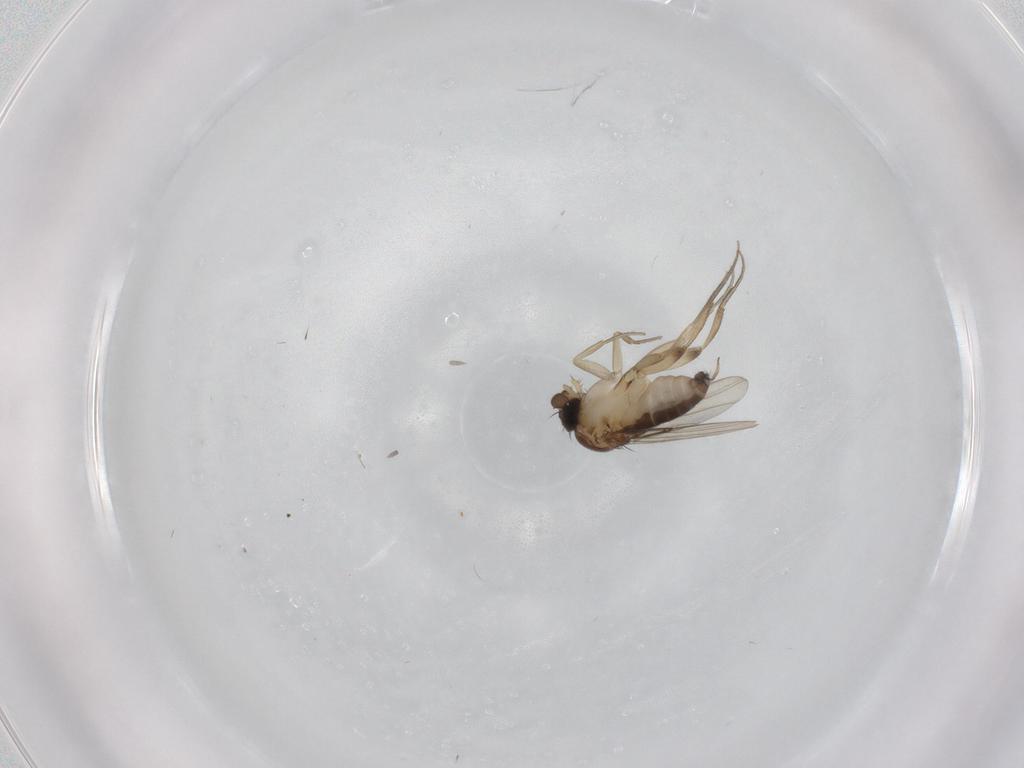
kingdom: Animalia
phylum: Arthropoda
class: Insecta
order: Diptera
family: Phoridae
